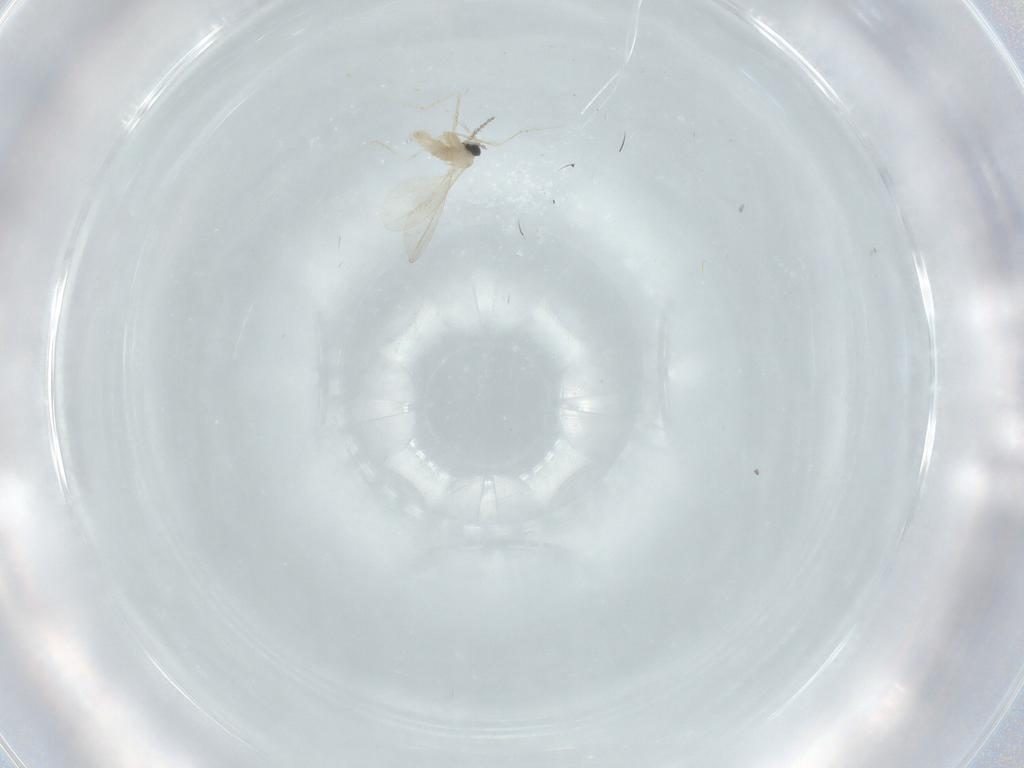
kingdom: Animalia
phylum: Arthropoda
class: Insecta
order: Diptera
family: Cecidomyiidae
